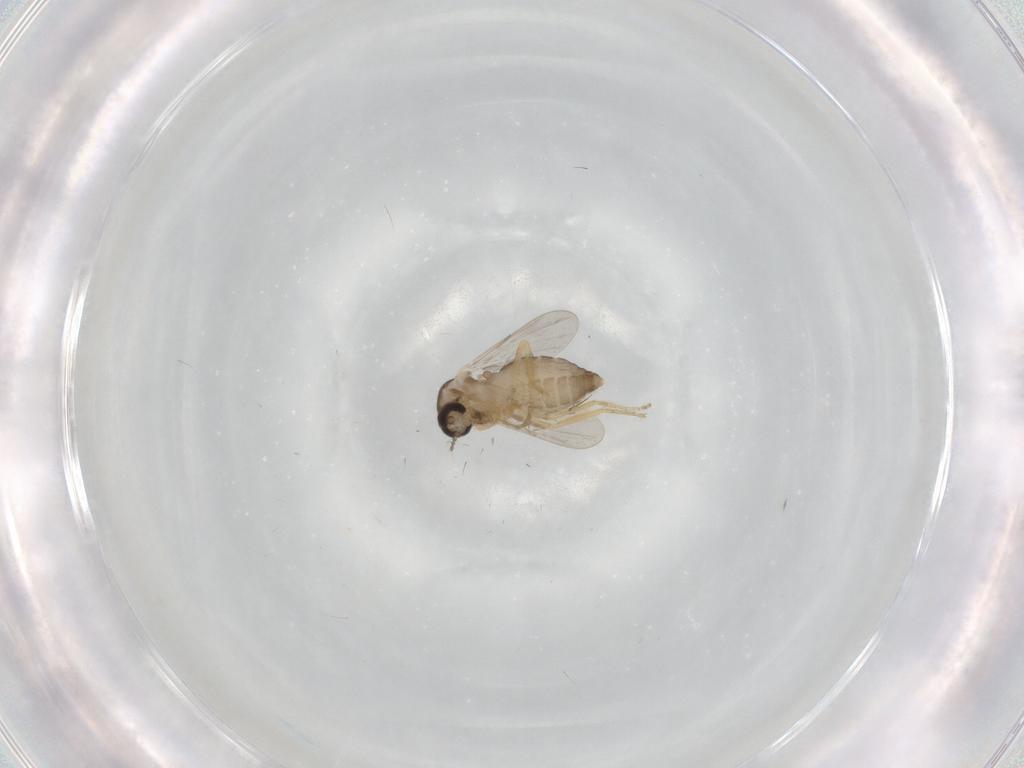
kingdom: Animalia
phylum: Arthropoda
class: Insecta
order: Diptera
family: Ceratopogonidae
